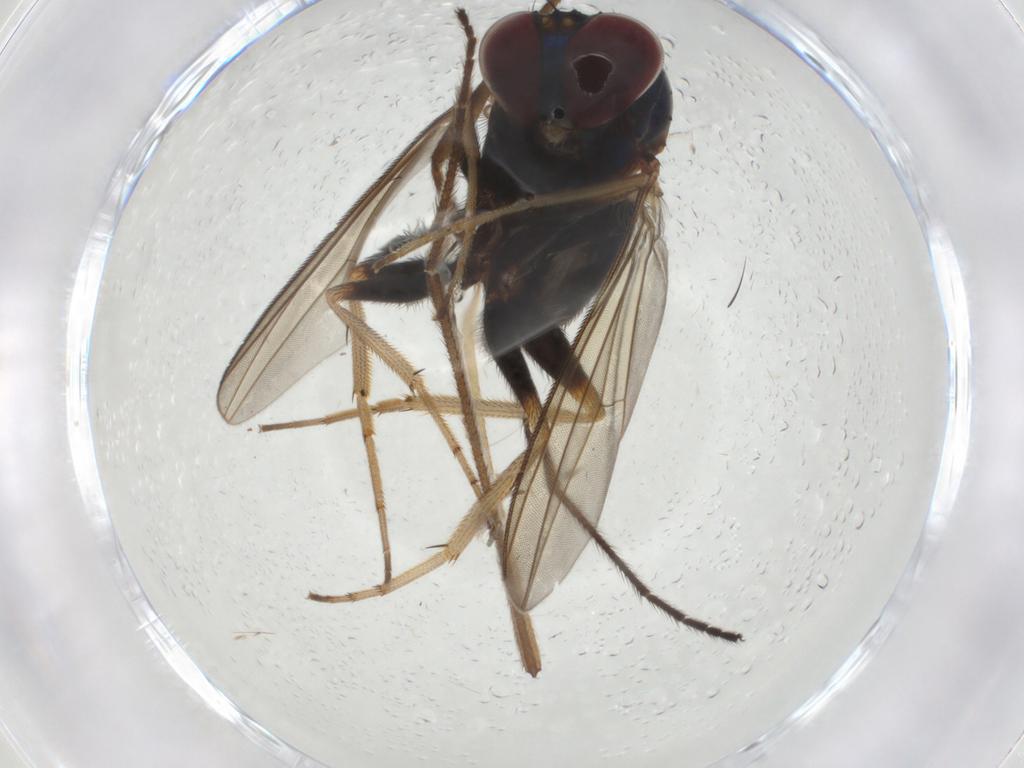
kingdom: Animalia
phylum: Arthropoda
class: Insecta
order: Diptera
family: Dolichopodidae
